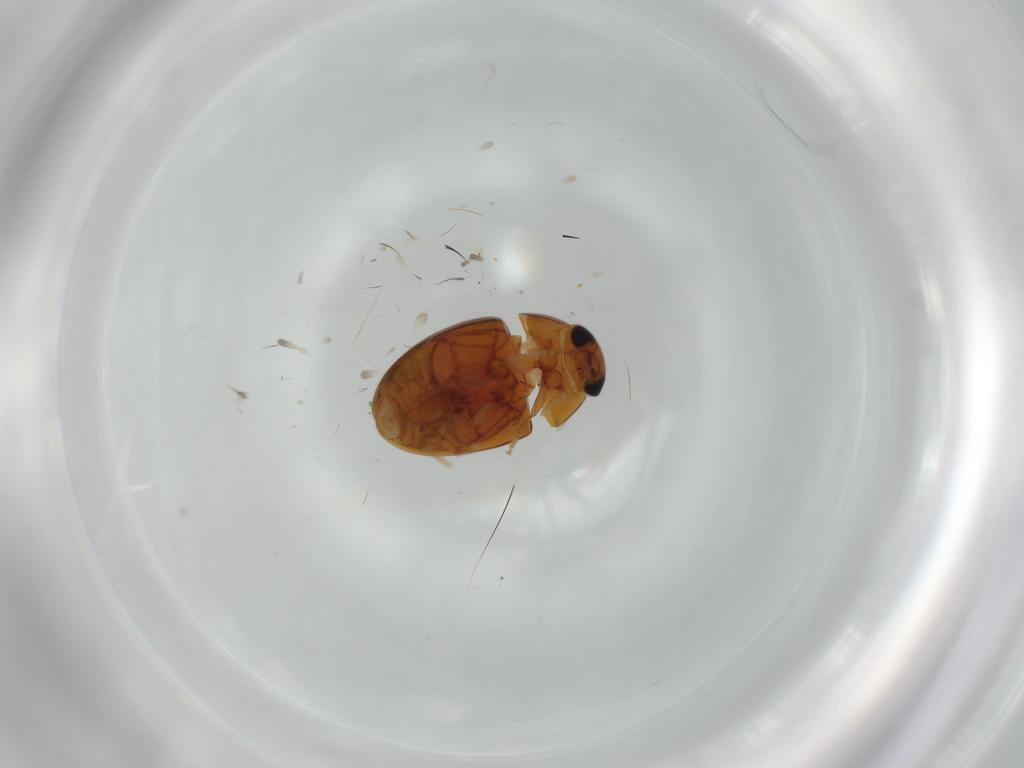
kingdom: Animalia
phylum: Arthropoda
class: Insecta
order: Coleoptera
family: Phalacridae
